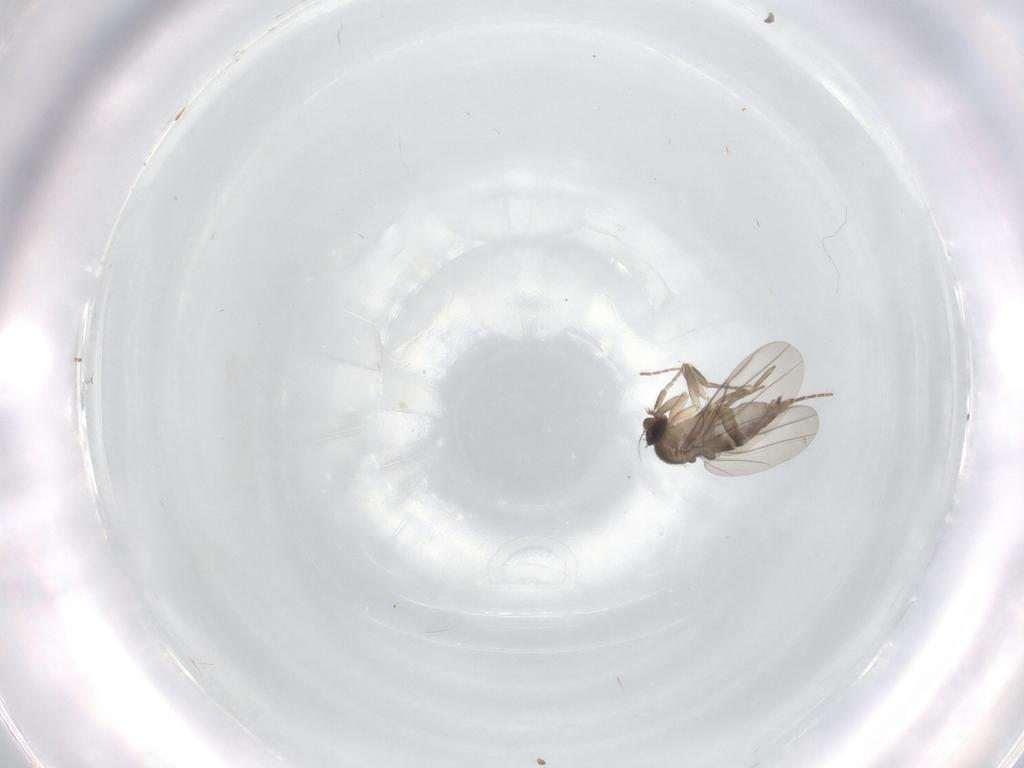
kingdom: Animalia
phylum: Arthropoda
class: Insecta
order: Diptera
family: Phoridae
